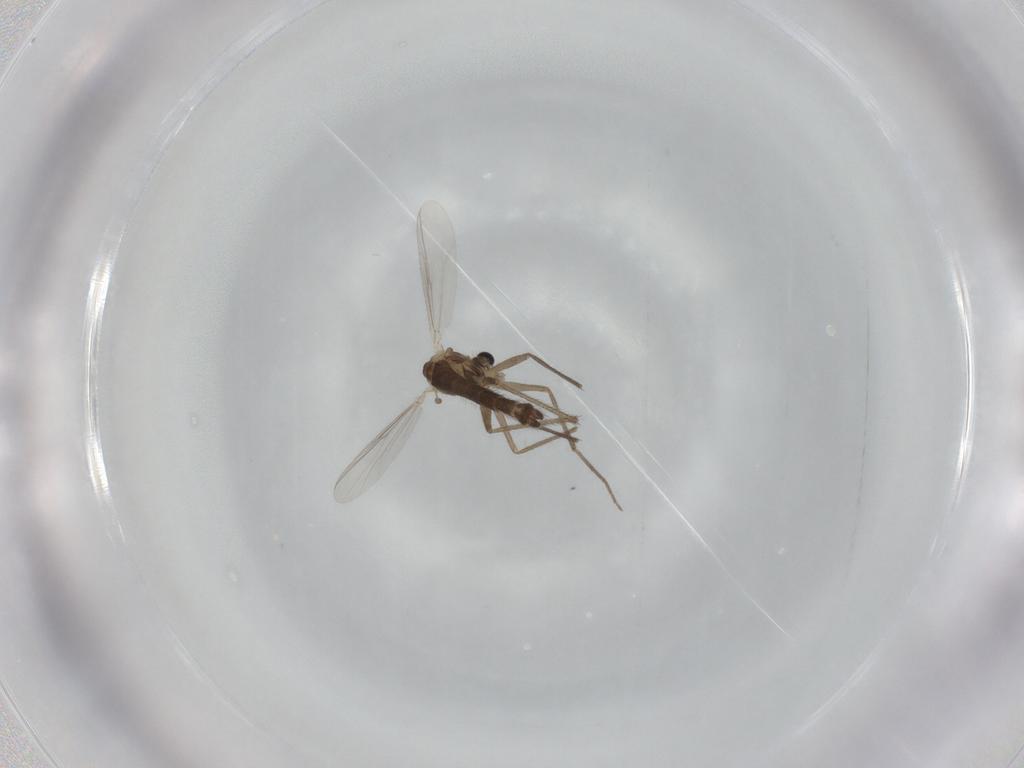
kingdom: Animalia
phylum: Arthropoda
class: Insecta
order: Diptera
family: Chironomidae
